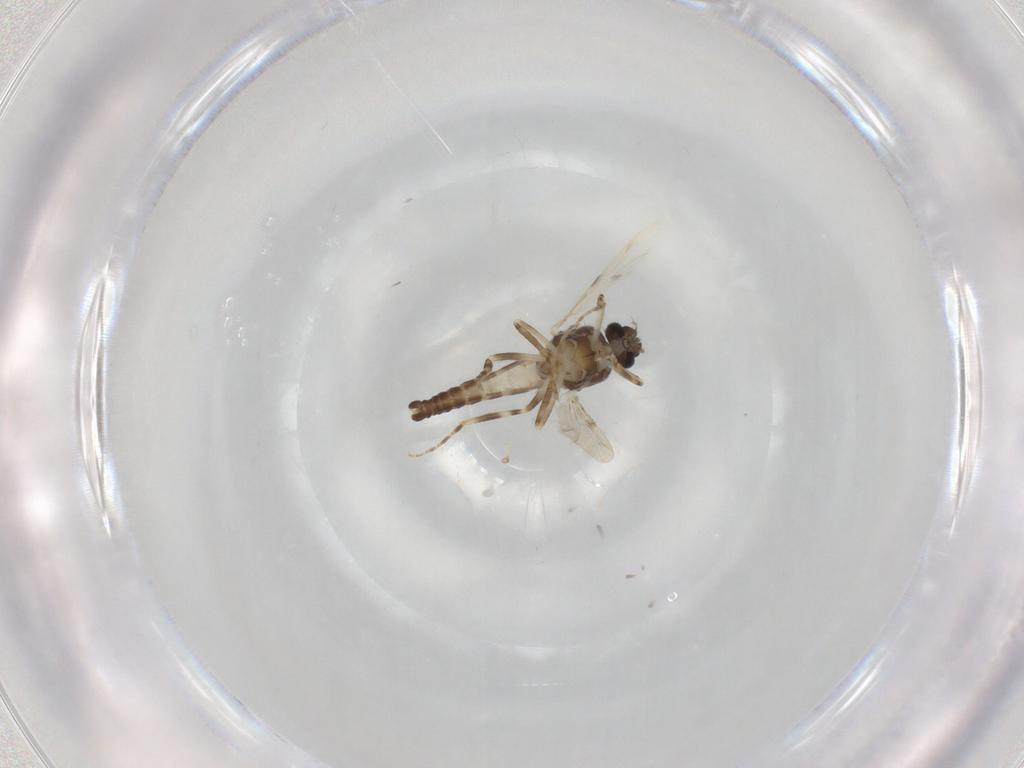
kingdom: Animalia
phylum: Arthropoda
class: Insecta
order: Diptera
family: Ceratopogonidae
